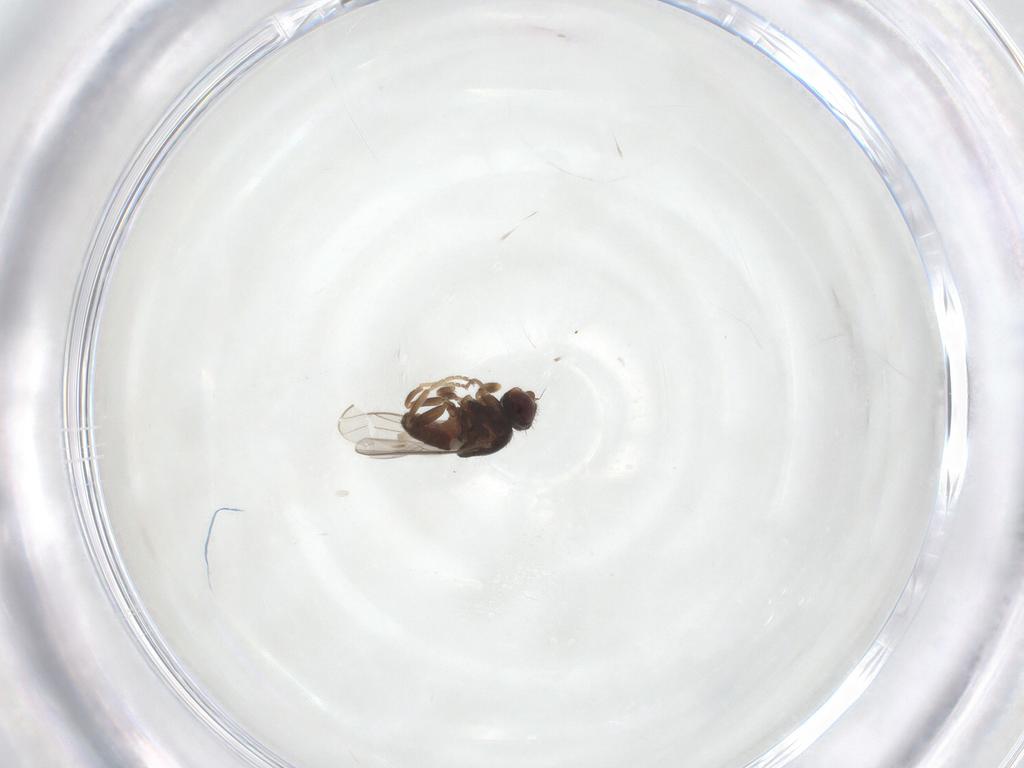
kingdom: Animalia
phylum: Arthropoda
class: Insecta
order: Diptera
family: Chloropidae
